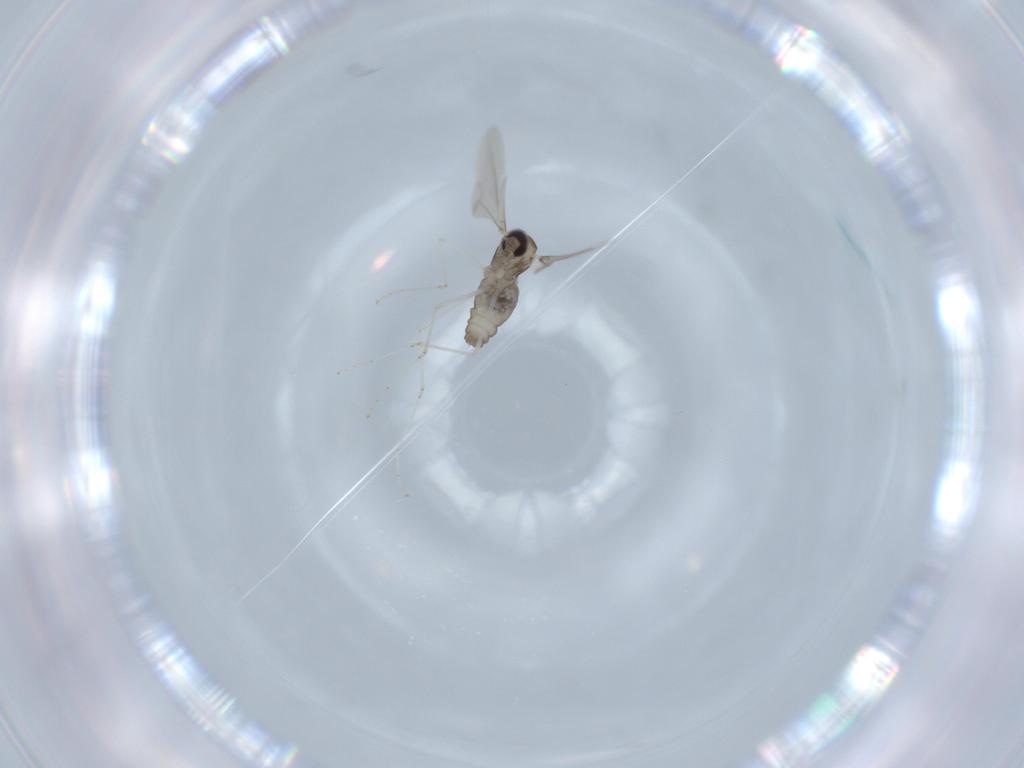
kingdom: Animalia
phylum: Arthropoda
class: Insecta
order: Diptera
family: Cecidomyiidae
